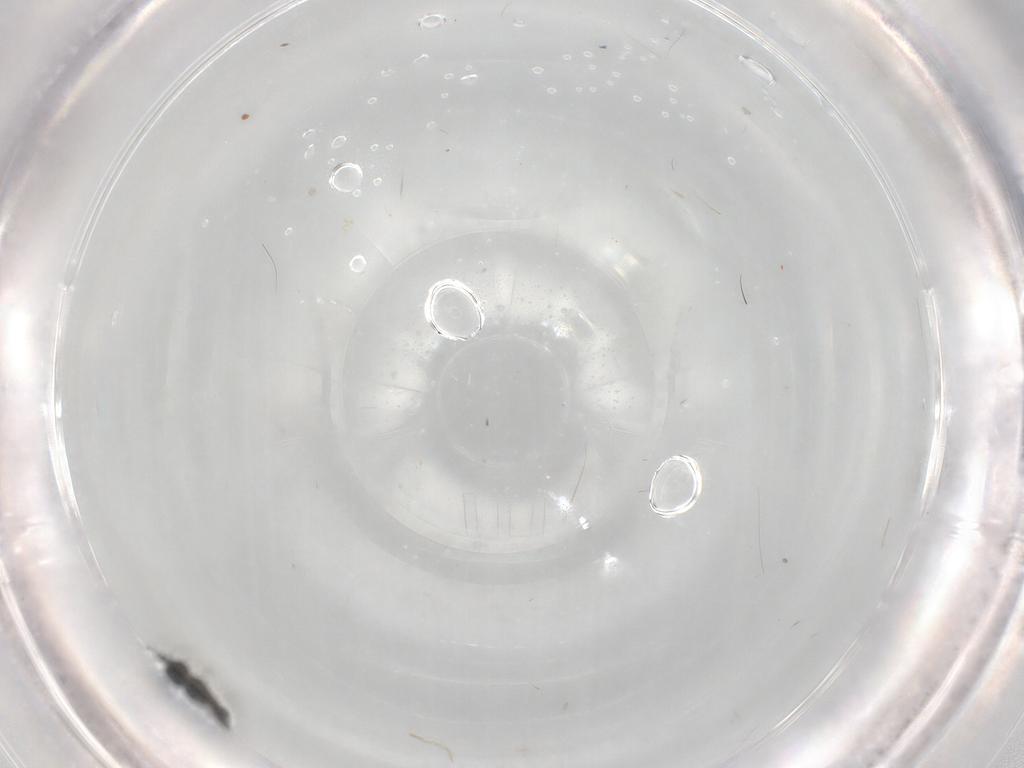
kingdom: Animalia
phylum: Arthropoda
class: Insecta
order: Hymenoptera
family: Scelionidae
